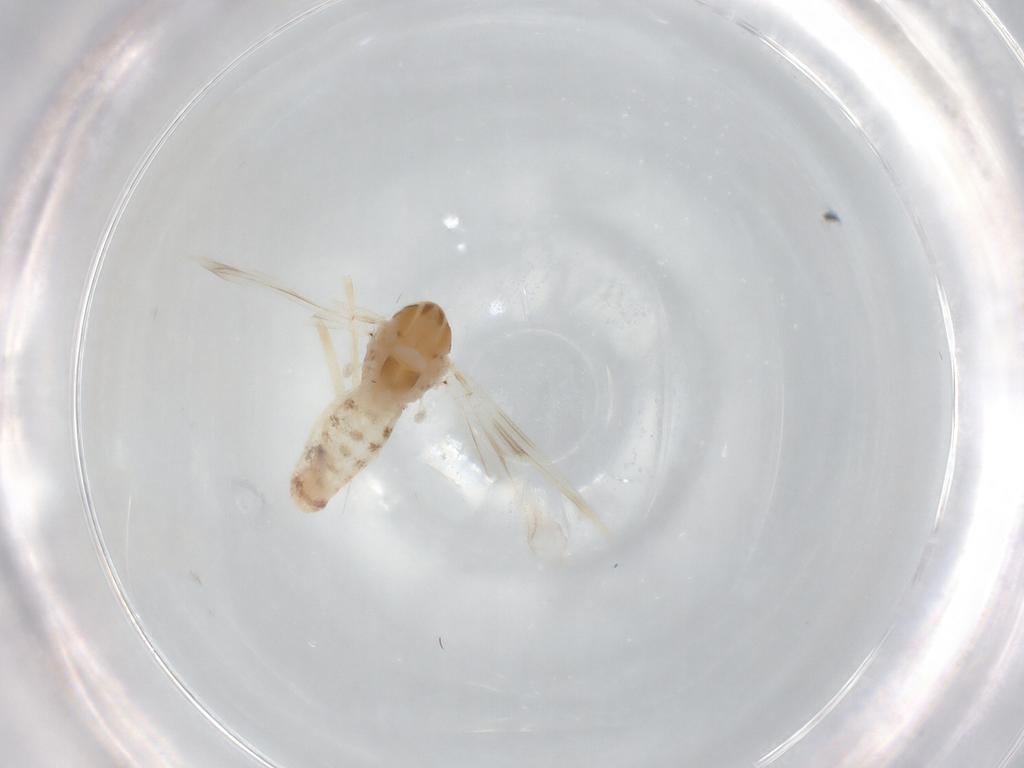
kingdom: Animalia
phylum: Arthropoda
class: Insecta
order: Diptera
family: Chironomidae
